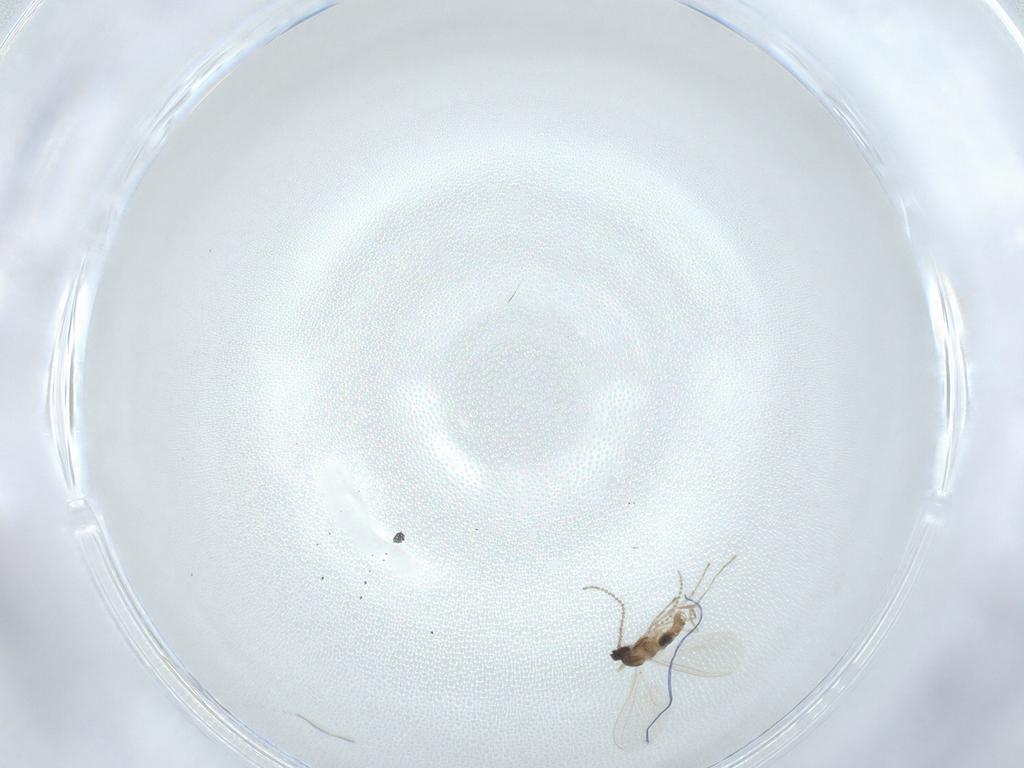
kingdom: Animalia
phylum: Arthropoda
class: Insecta
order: Diptera
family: Cecidomyiidae
